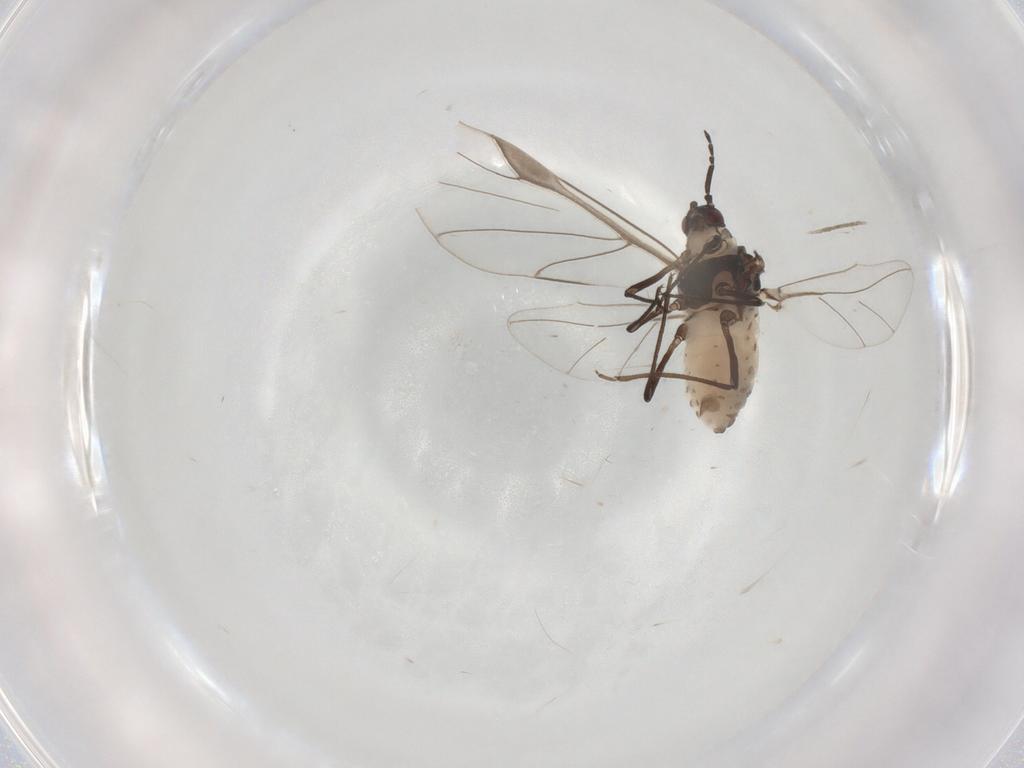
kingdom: Animalia
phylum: Arthropoda
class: Insecta
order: Hemiptera
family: Aphididae
